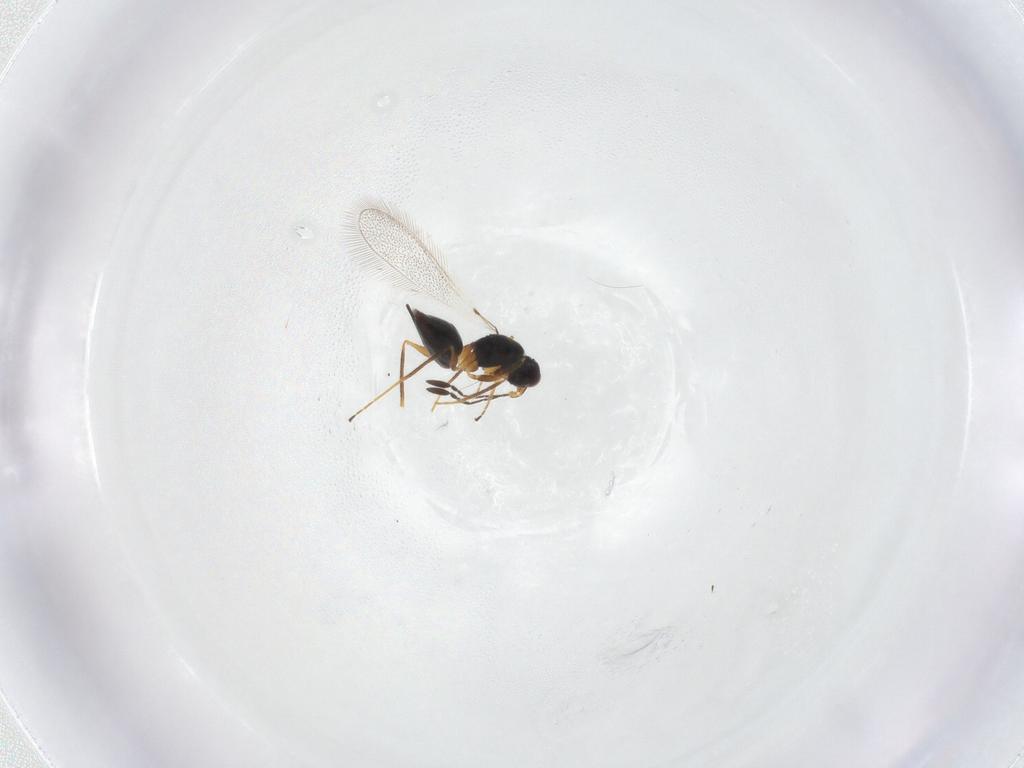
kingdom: Animalia
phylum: Arthropoda
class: Insecta
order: Hymenoptera
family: Mymaridae
